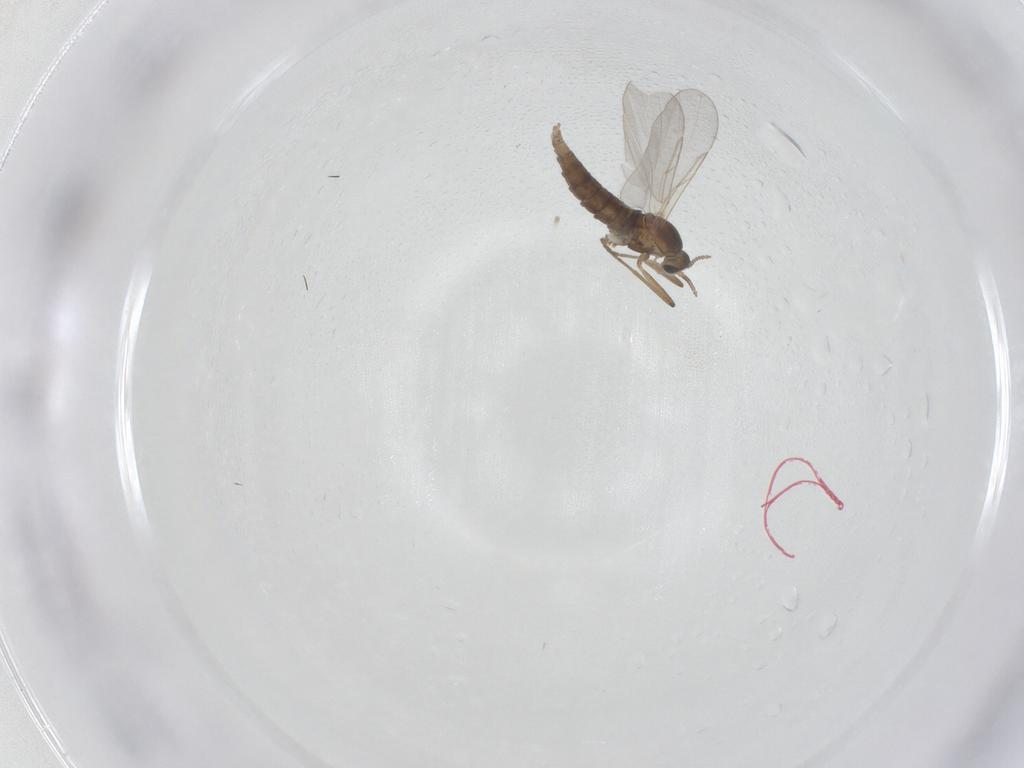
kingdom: Animalia
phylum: Arthropoda
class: Insecta
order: Diptera
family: Cecidomyiidae
